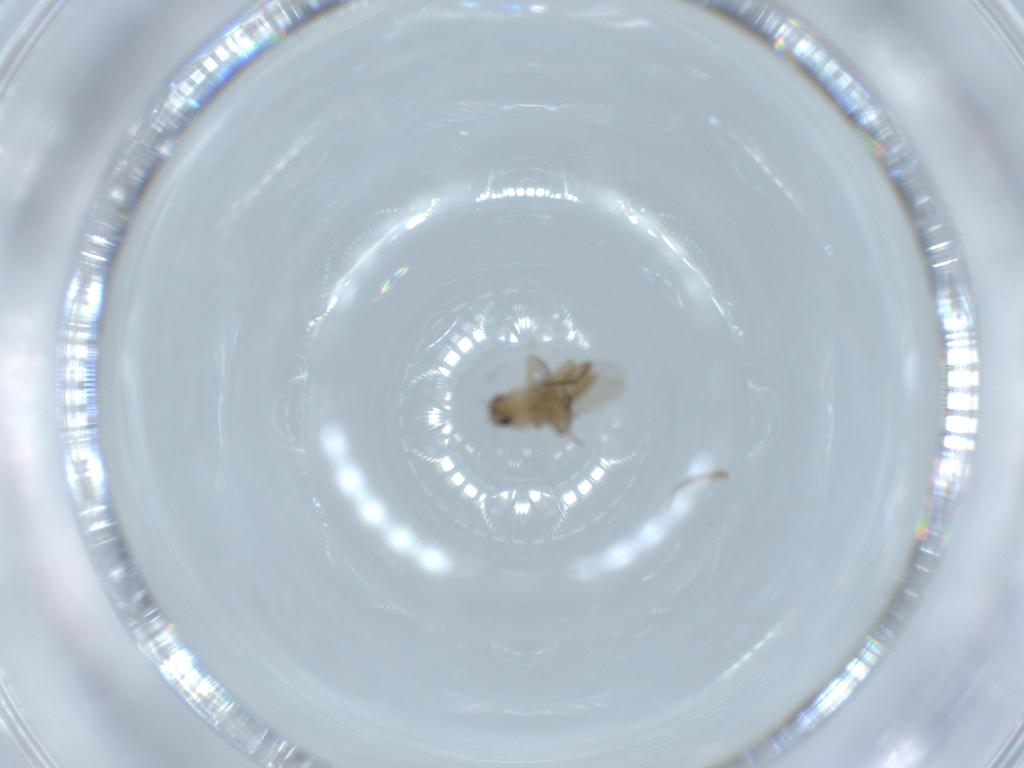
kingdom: Animalia
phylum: Arthropoda
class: Insecta
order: Diptera
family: Phoridae
